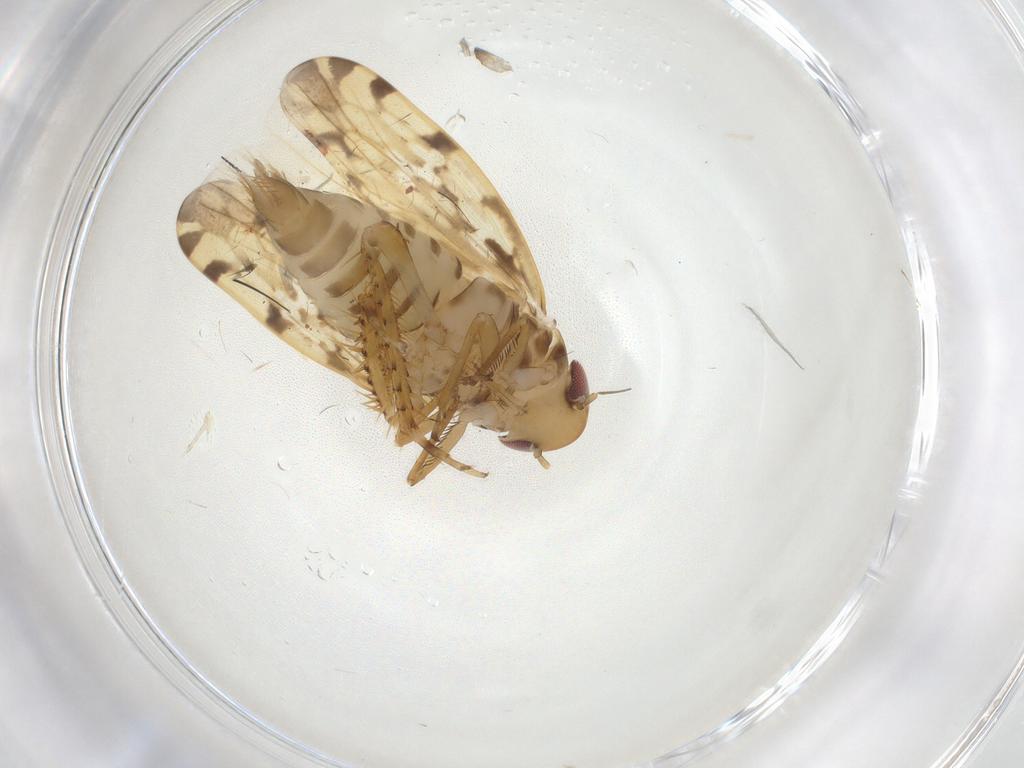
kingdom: Animalia
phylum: Arthropoda
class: Insecta
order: Hemiptera
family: Cicadellidae
